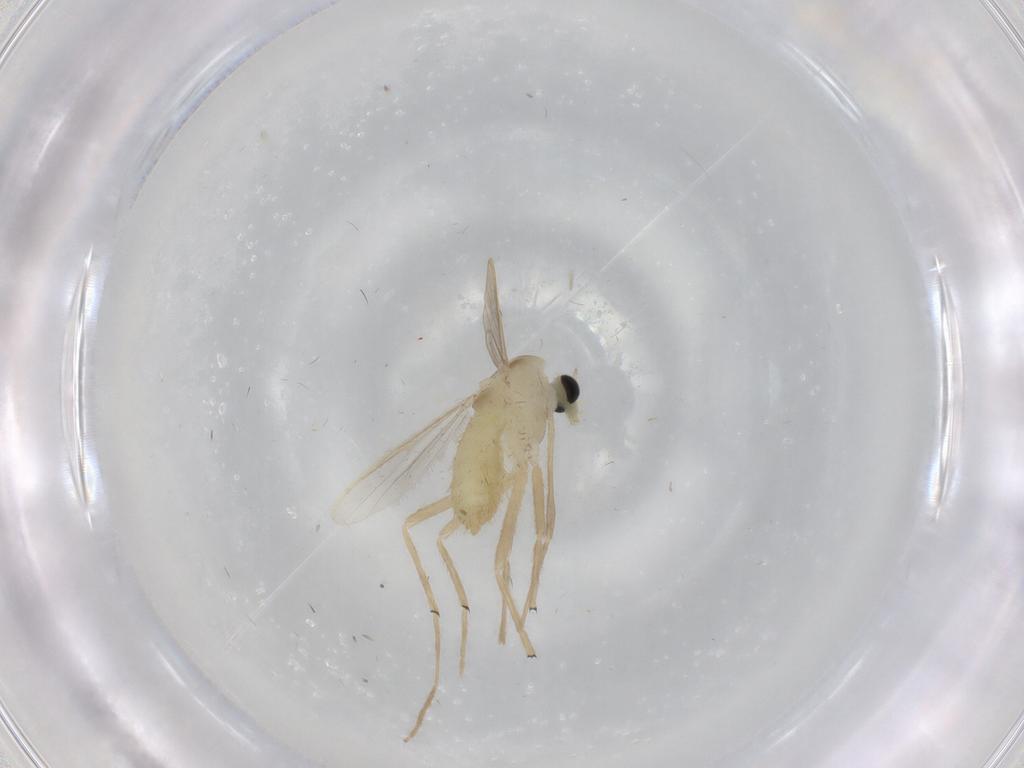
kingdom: Animalia
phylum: Arthropoda
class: Insecta
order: Diptera
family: Chironomidae
